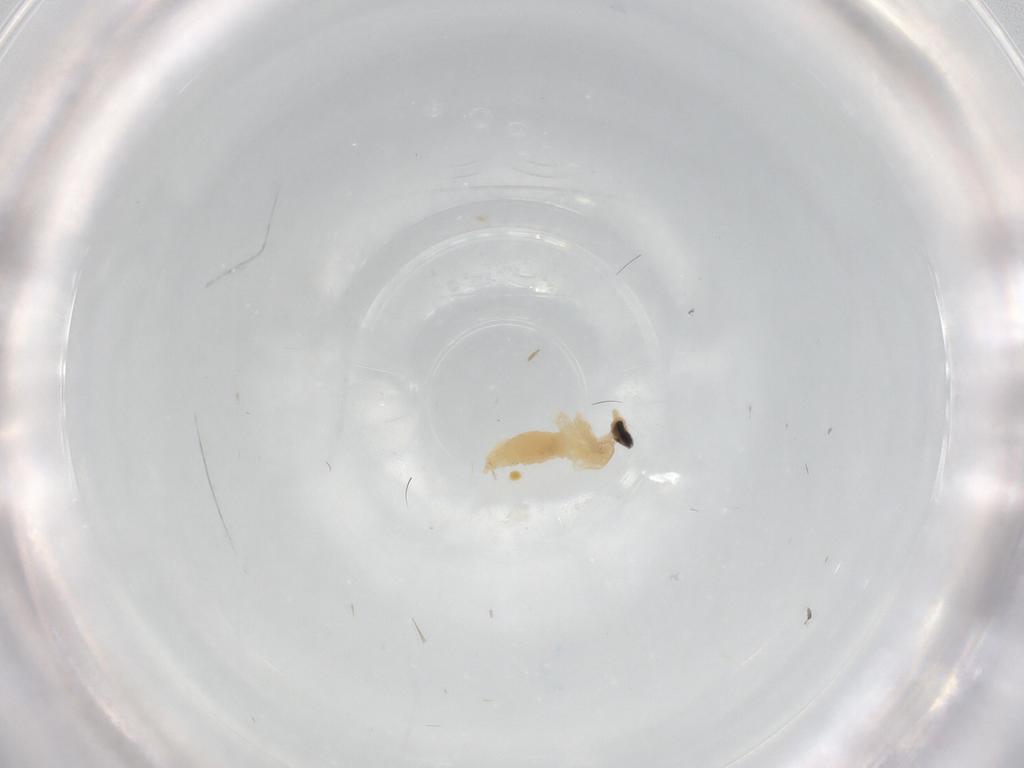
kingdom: Animalia
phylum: Arthropoda
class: Insecta
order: Diptera
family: Cecidomyiidae
